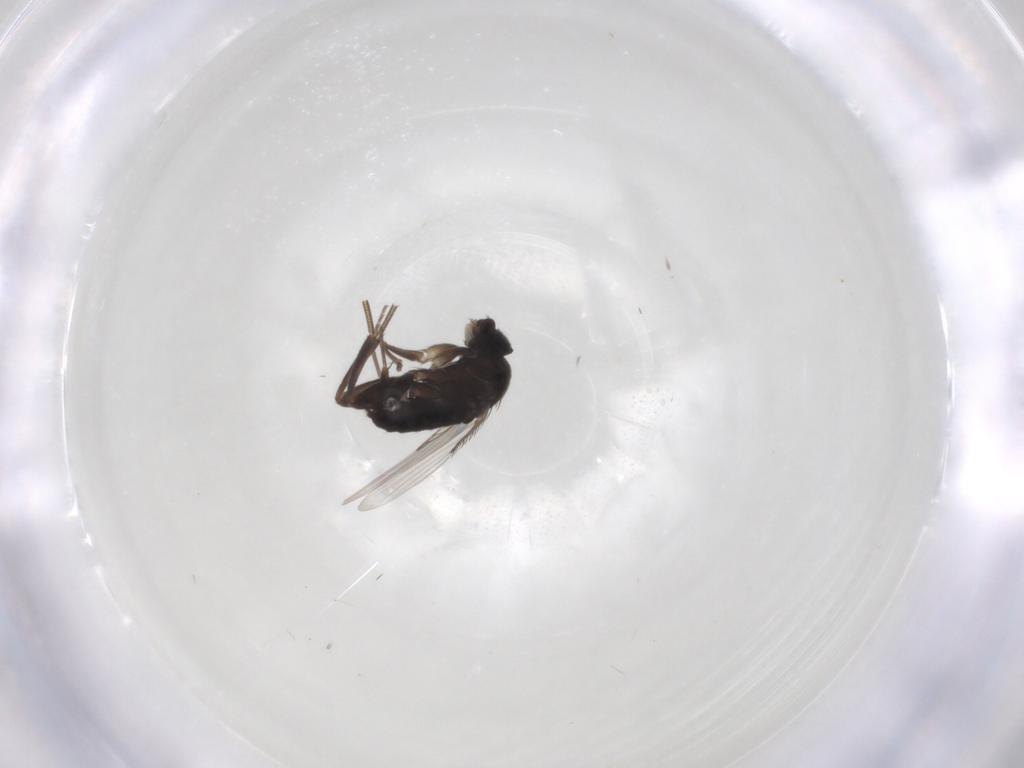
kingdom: Animalia
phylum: Arthropoda
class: Insecta
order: Diptera
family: Phoridae
